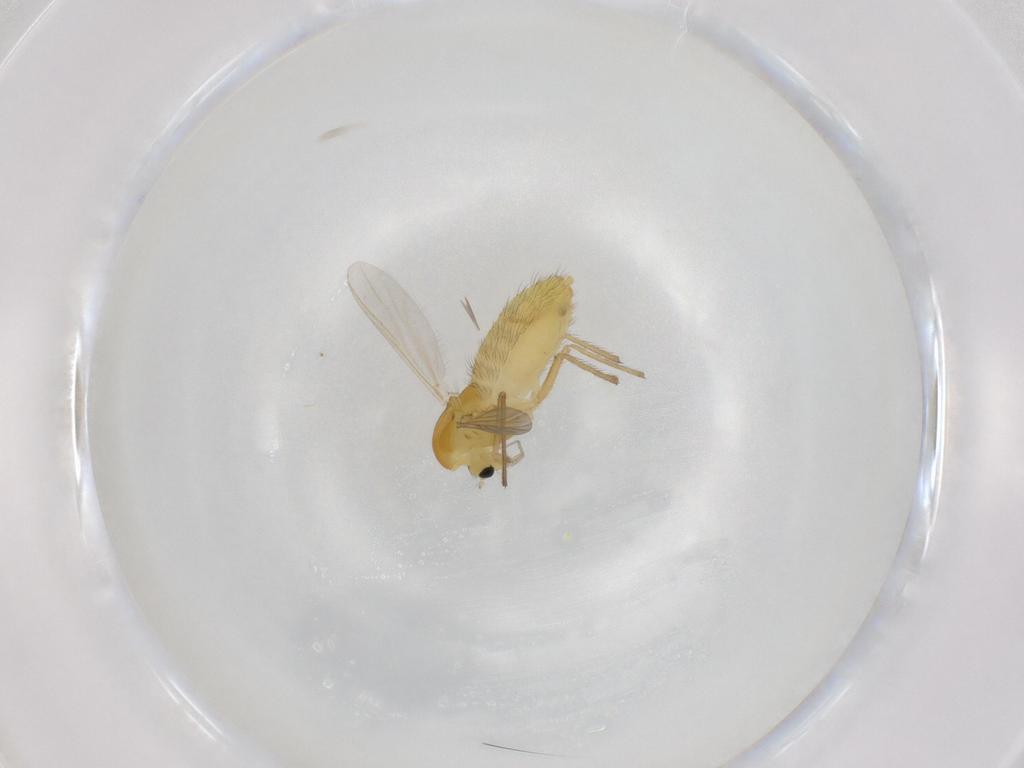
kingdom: Animalia
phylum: Arthropoda
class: Insecta
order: Diptera
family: Chironomidae
